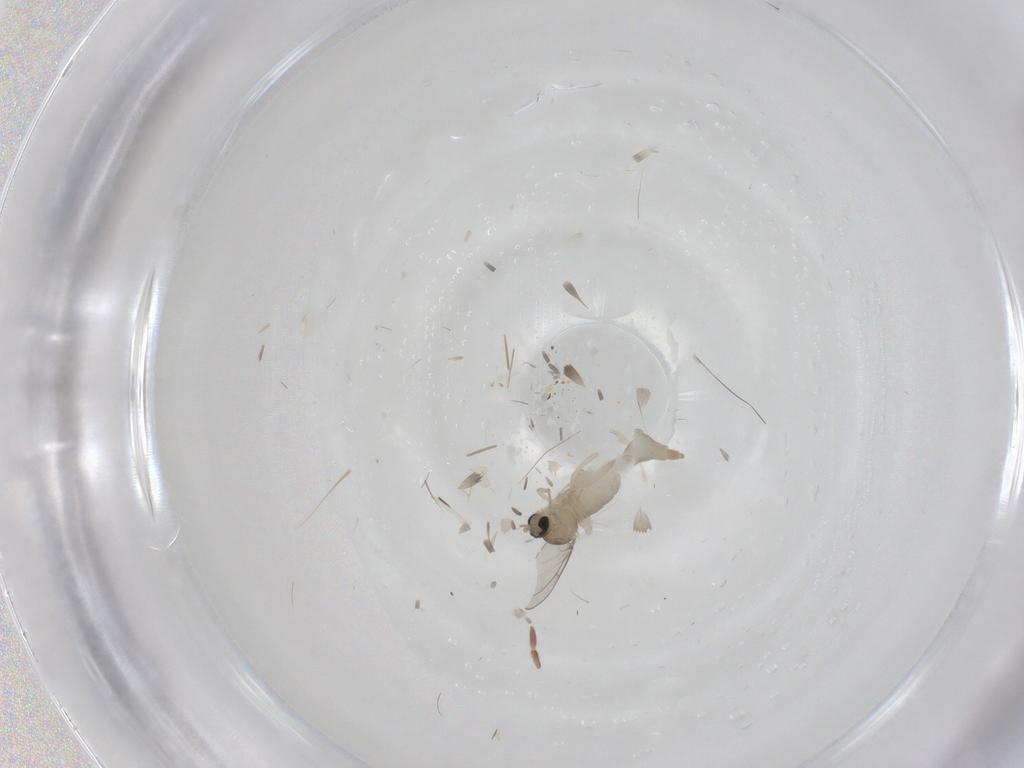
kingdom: Animalia
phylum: Arthropoda
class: Insecta
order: Diptera
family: Cecidomyiidae
